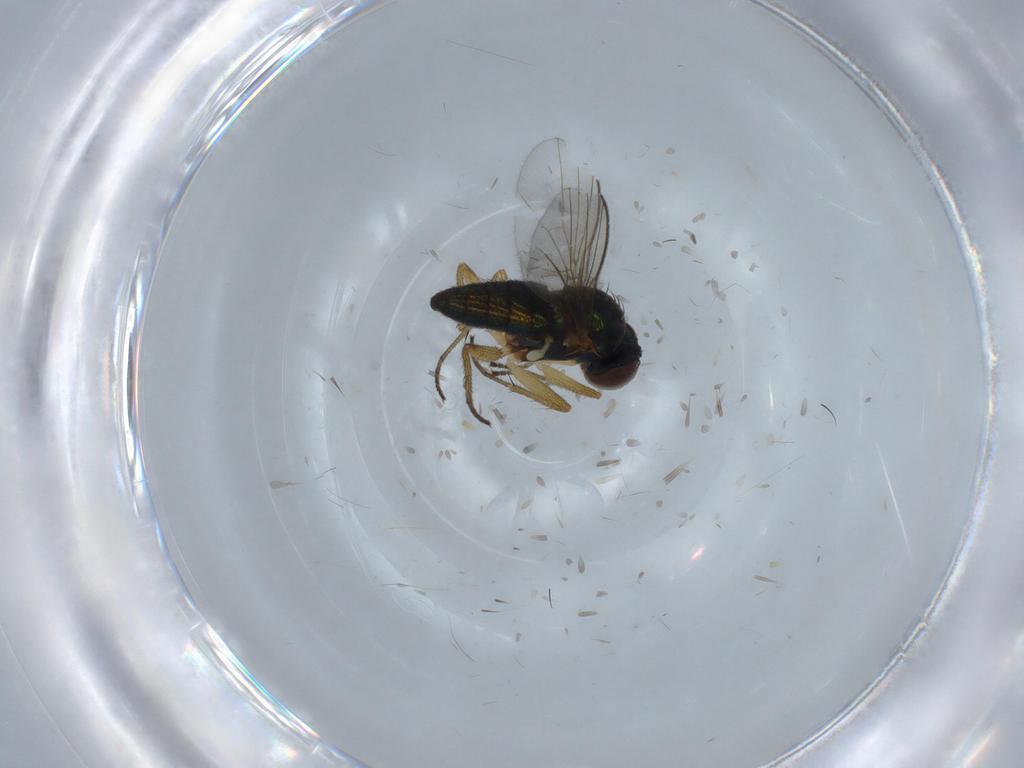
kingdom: Animalia
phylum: Arthropoda
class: Insecta
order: Diptera
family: Dolichopodidae
